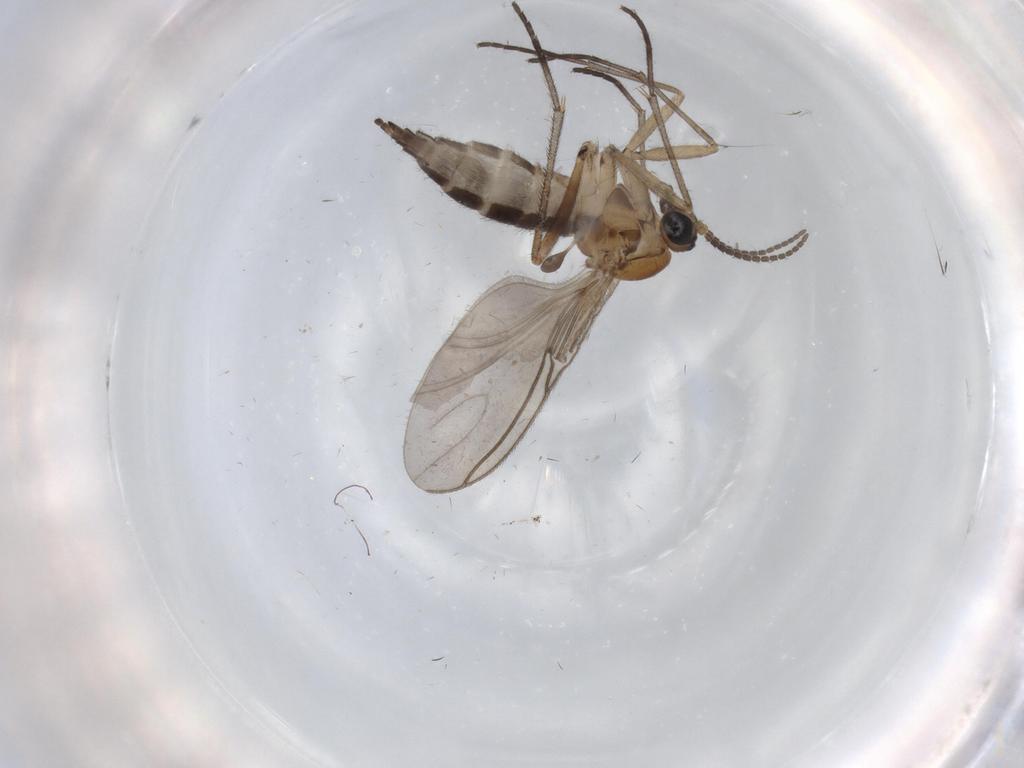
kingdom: Animalia
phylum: Arthropoda
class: Insecta
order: Diptera
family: Sciaridae
